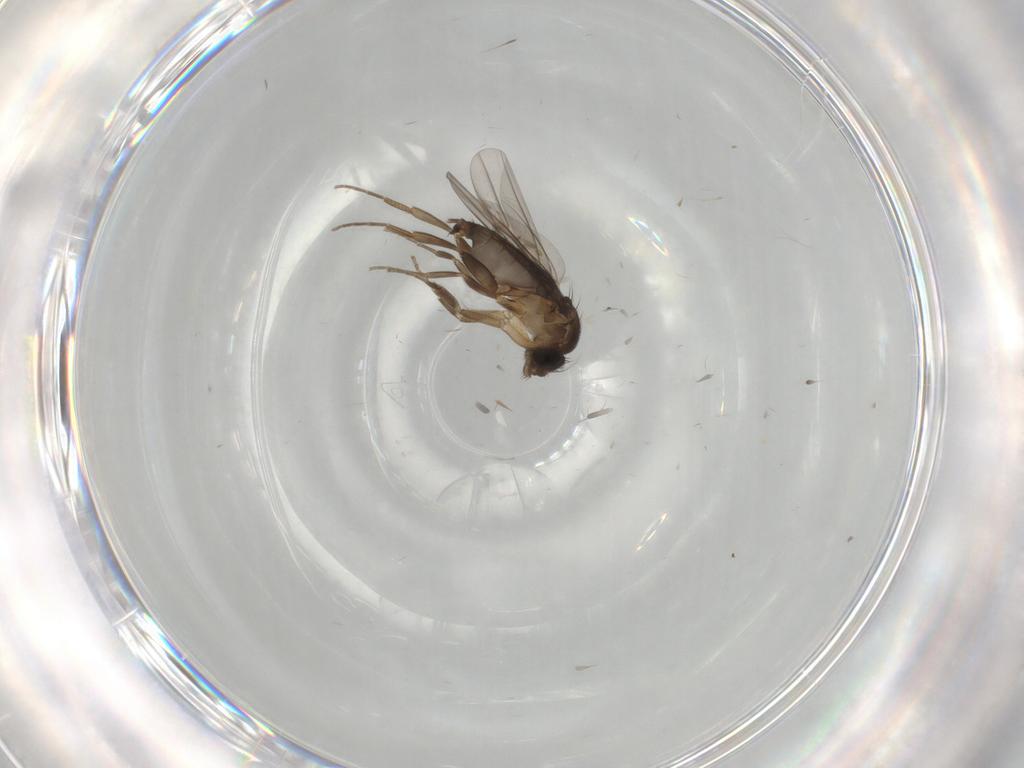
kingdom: Animalia
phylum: Arthropoda
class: Insecta
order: Diptera
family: Phoridae
